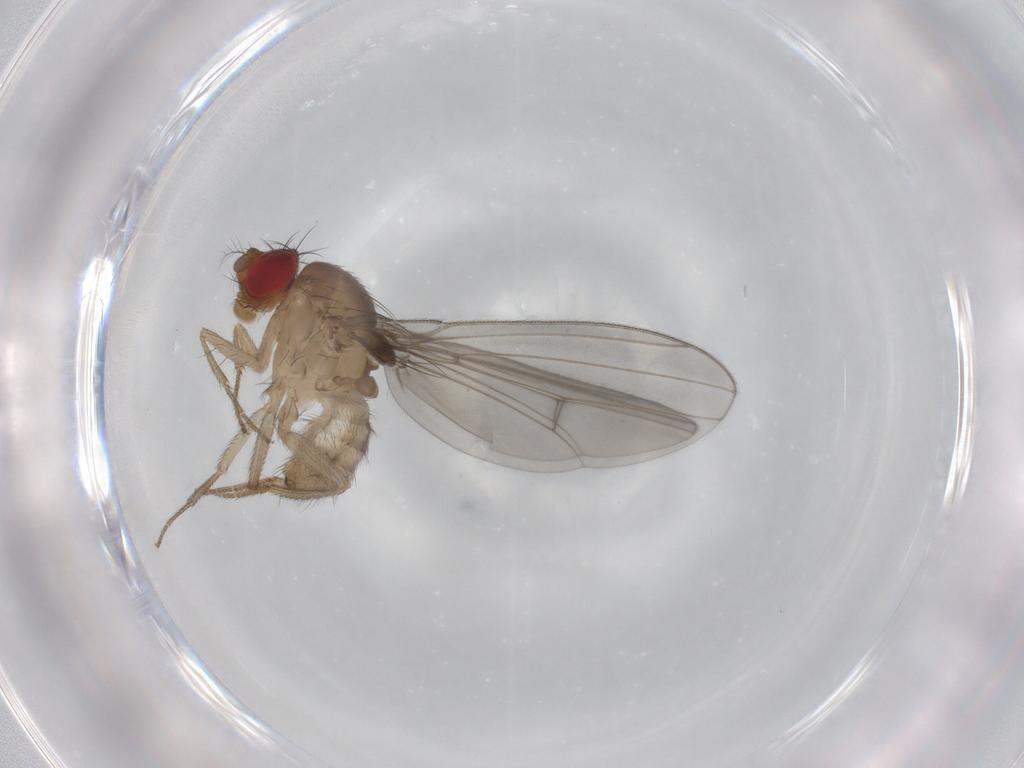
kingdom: Animalia
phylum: Arthropoda
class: Insecta
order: Diptera
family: Drosophilidae
